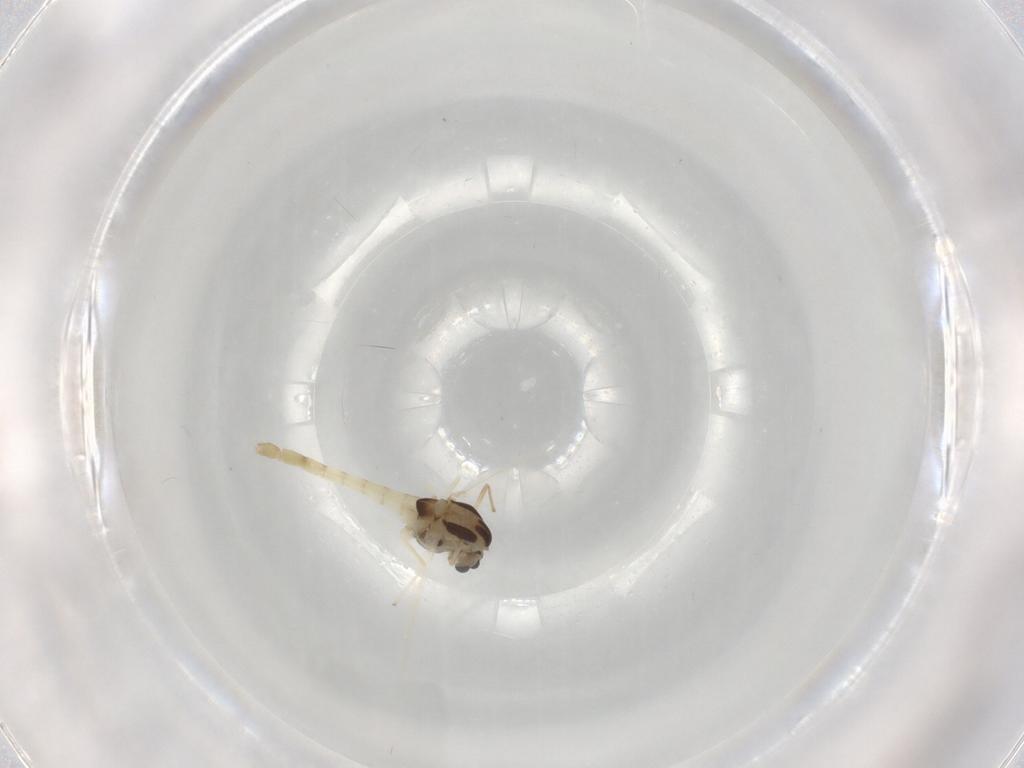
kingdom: Animalia
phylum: Arthropoda
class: Insecta
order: Diptera
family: Chironomidae
